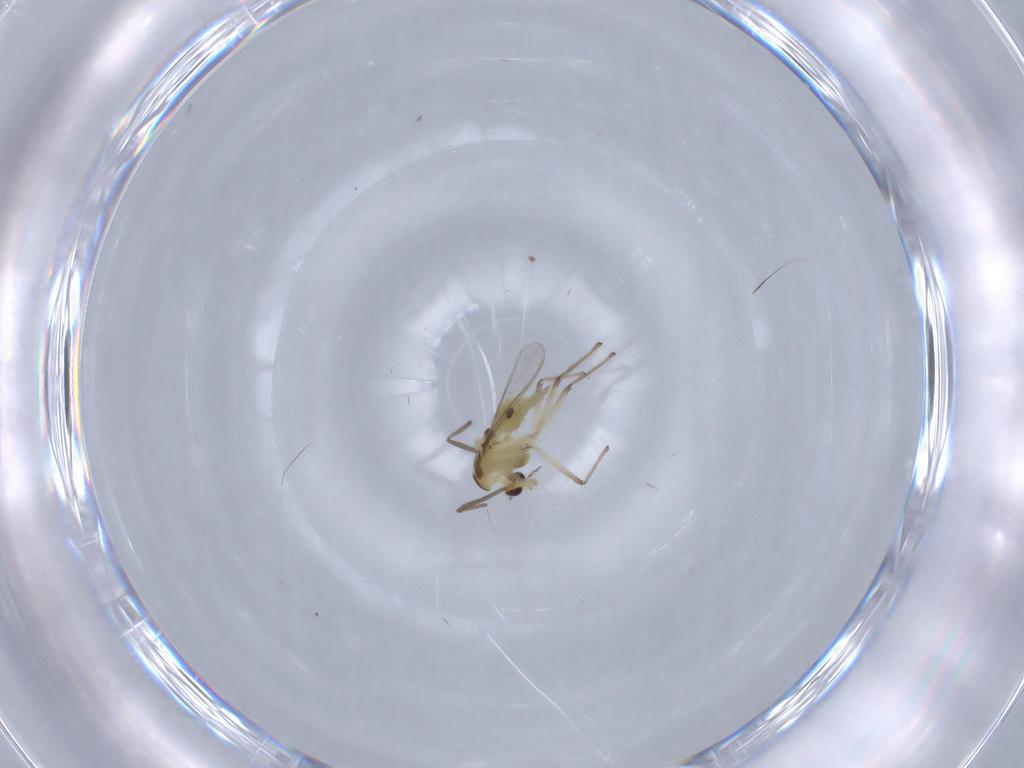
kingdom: Animalia
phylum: Arthropoda
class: Insecta
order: Diptera
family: Chironomidae
